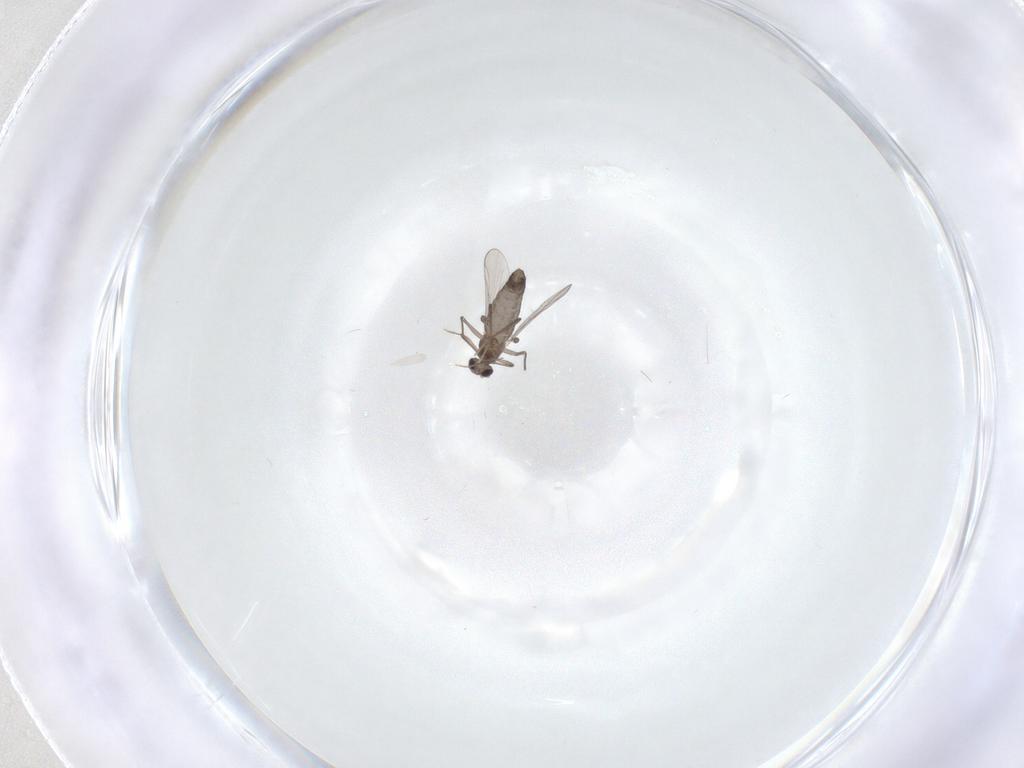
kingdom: Animalia
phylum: Arthropoda
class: Insecta
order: Diptera
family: Chironomidae
